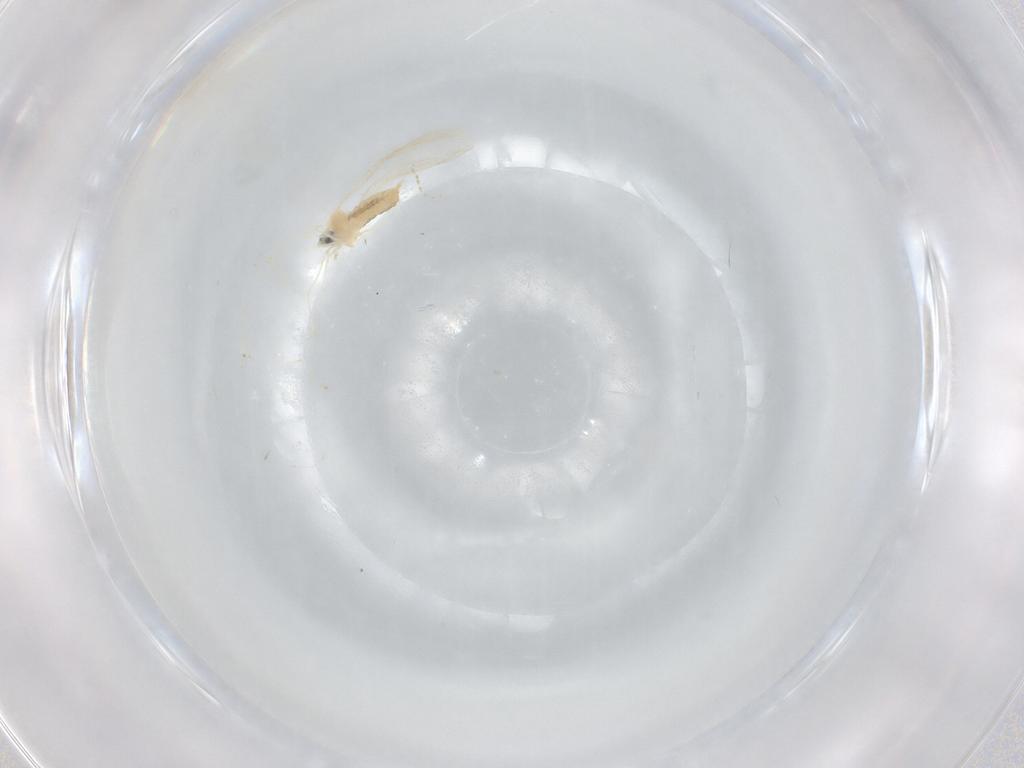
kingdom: Animalia
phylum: Arthropoda
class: Insecta
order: Diptera
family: Cecidomyiidae
